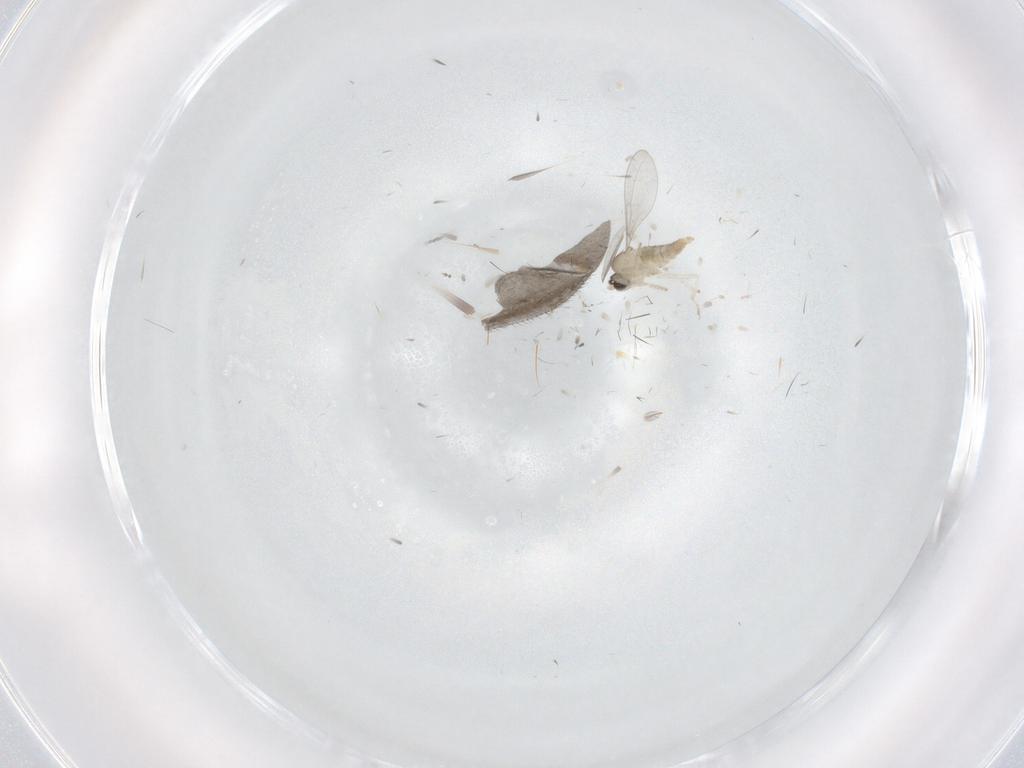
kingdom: Animalia
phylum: Arthropoda
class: Insecta
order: Diptera
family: Cecidomyiidae
